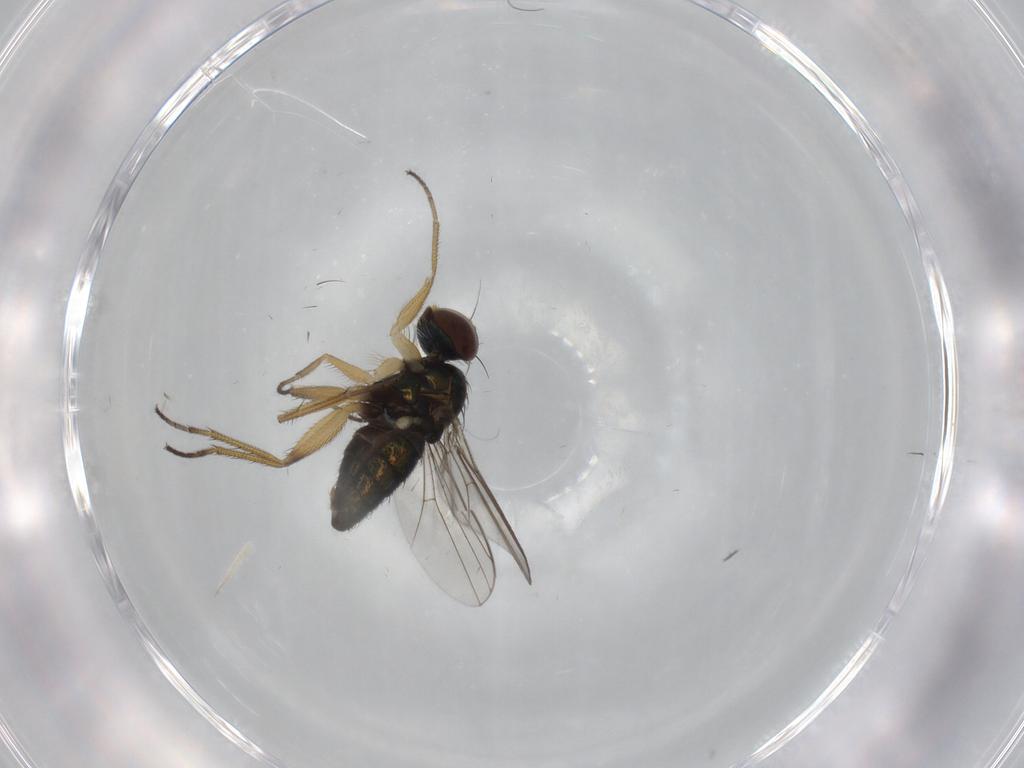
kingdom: Animalia
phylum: Arthropoda
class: Insecta
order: Diptera
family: Dolichopodidae
